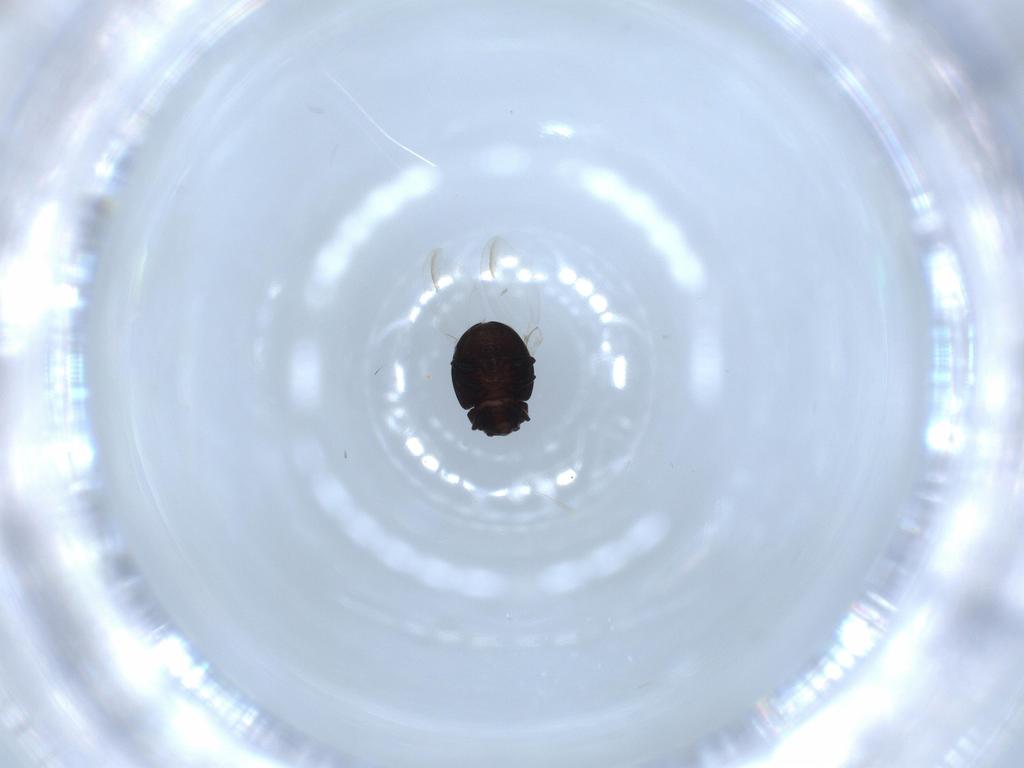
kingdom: Animalia
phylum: Arthropoda
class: Insecta
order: Coleoptera
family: Coccinellidae
